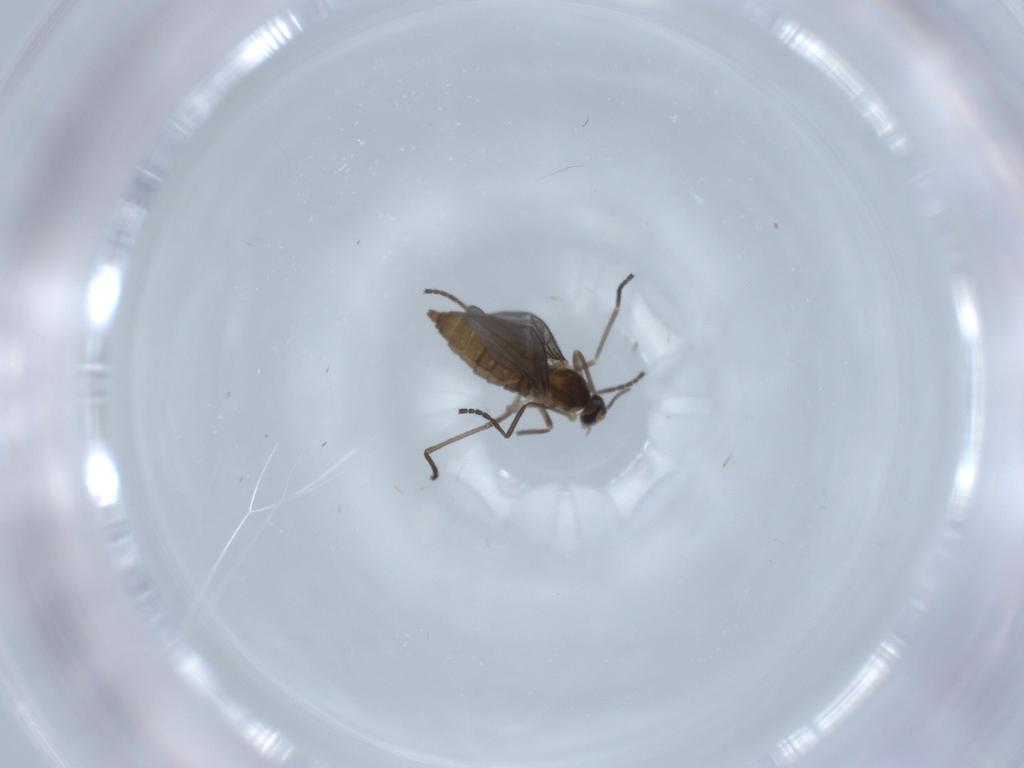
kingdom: Animalia
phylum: Arthropoda
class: Insecta
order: Diptera
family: Cecidomyiidae
